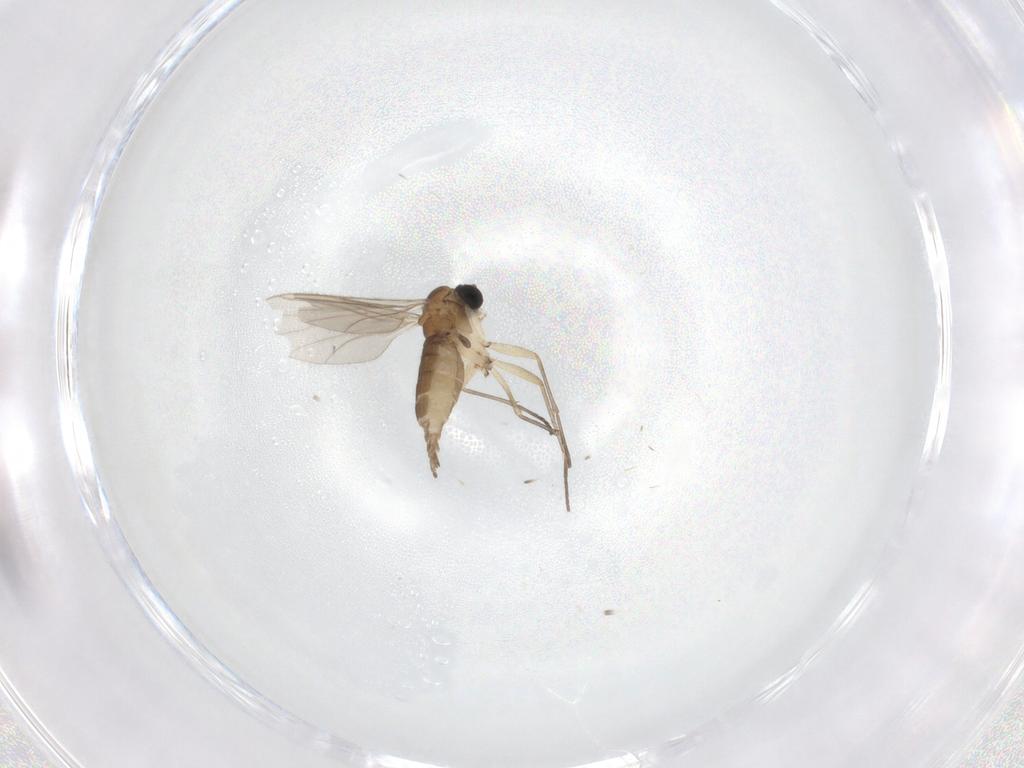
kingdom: Animalia
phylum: Arthropoda
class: Insecta
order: Diptera
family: Sciaridae
